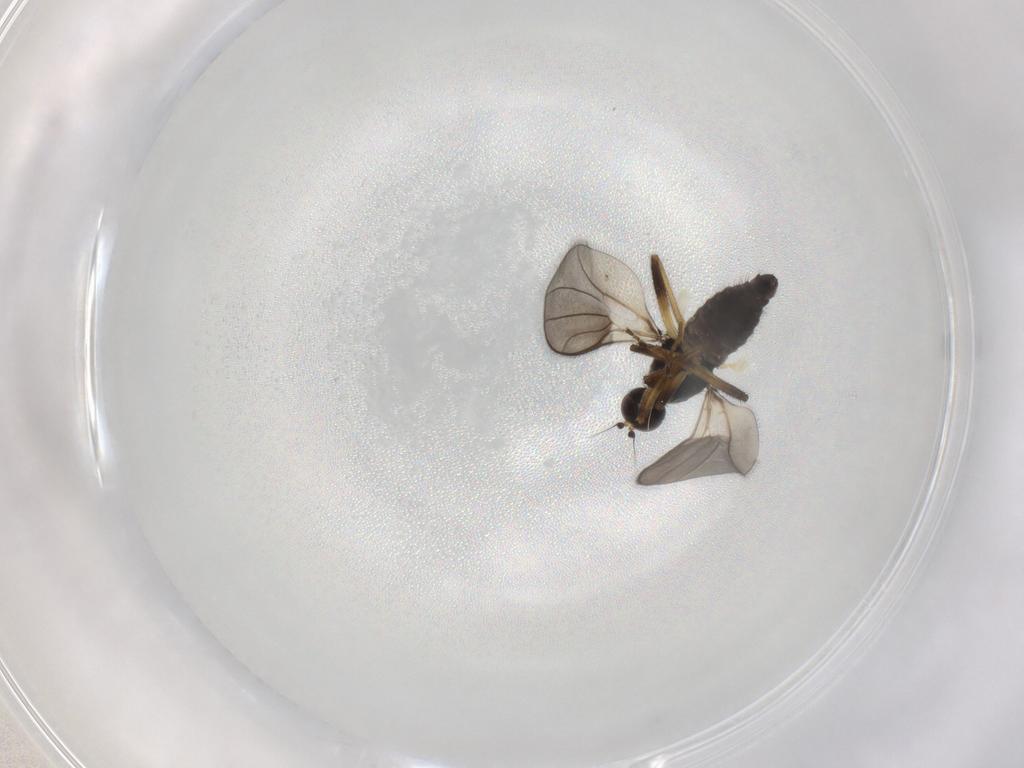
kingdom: Animalia
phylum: Arthropoda
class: Insecta
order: Diptera
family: Hybotidae
